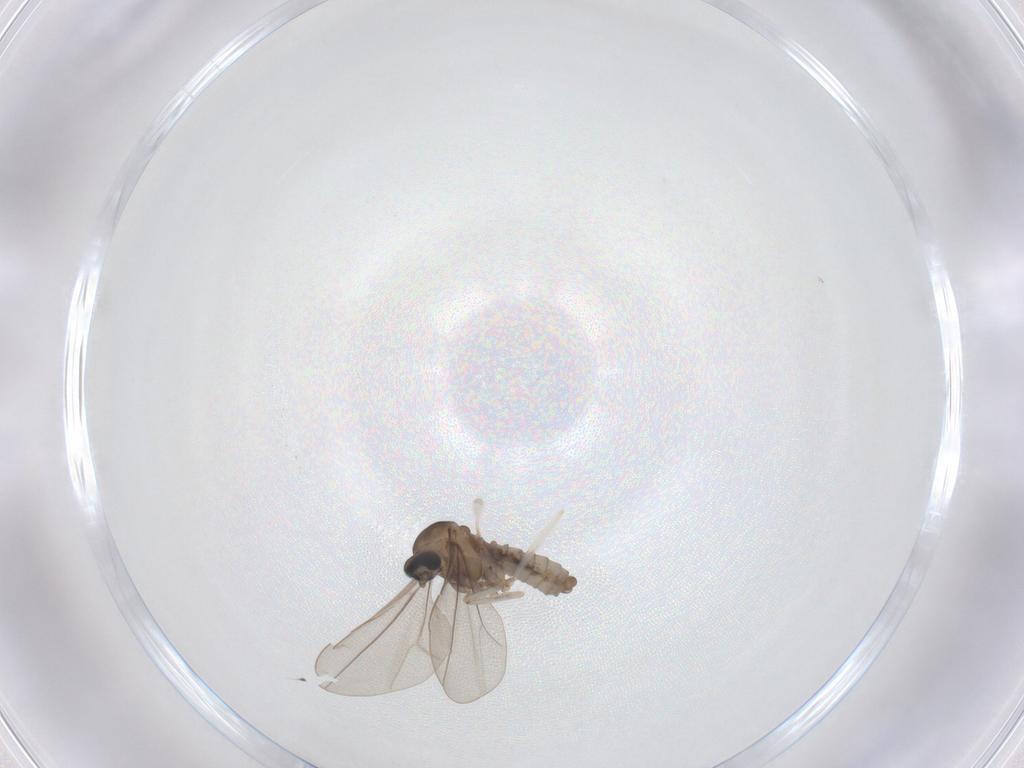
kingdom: Animalia
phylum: Arthropoda
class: Insecta
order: Diptera
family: Cecidomyiidae
